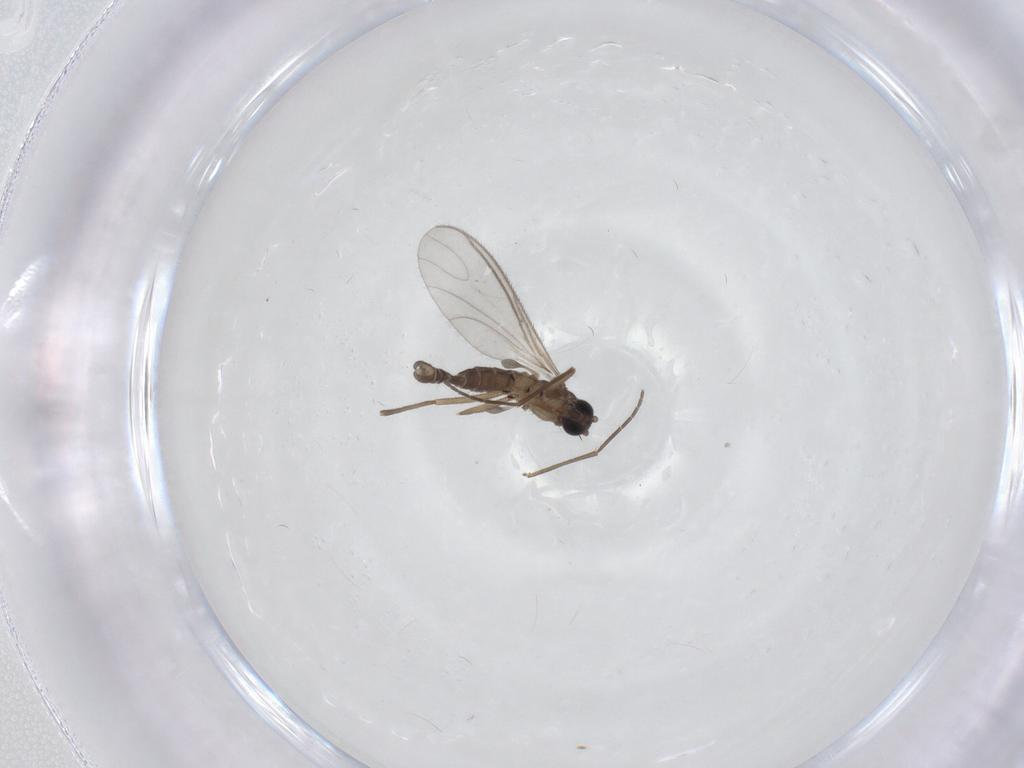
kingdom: Animalia
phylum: Arthropoda
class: Insecta
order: Diptera
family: Sciaridae
